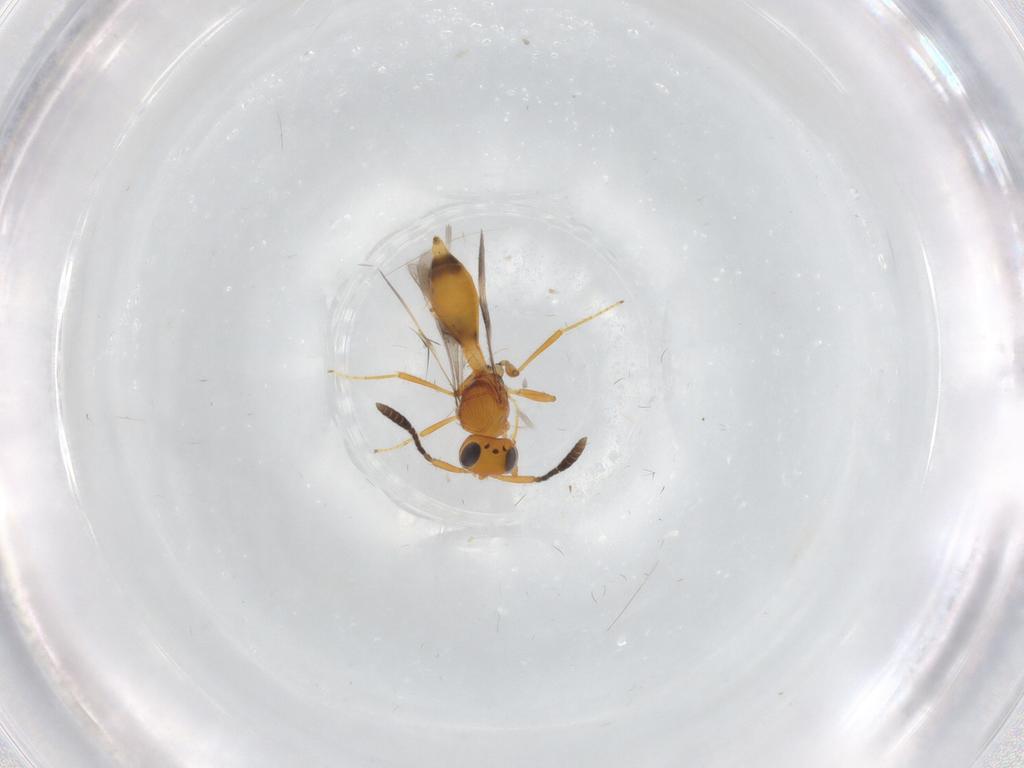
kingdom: Animalia
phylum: Arthropoda
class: Insecta
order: Hymenoptera
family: Scelionidae
